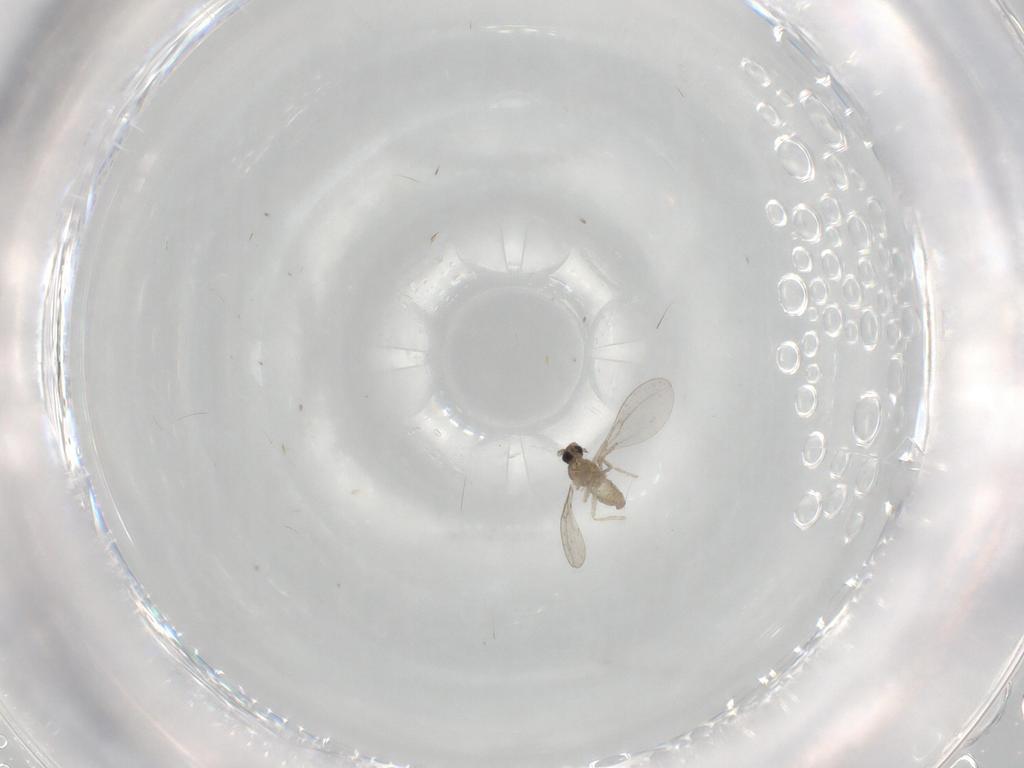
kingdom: Animalia
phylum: Arthropoda
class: Insecta
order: Diptera
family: Cecidomyiidae
